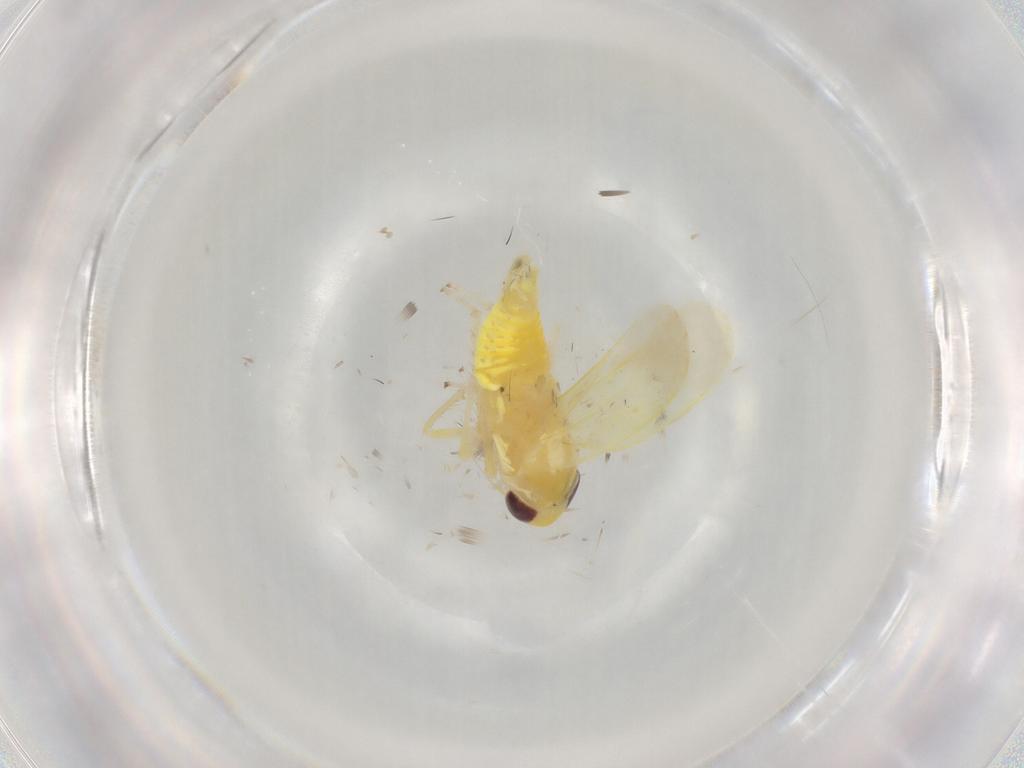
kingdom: Animalia
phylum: Arthropoda
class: Insecta
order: Hemiptera
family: Cicadellidae
